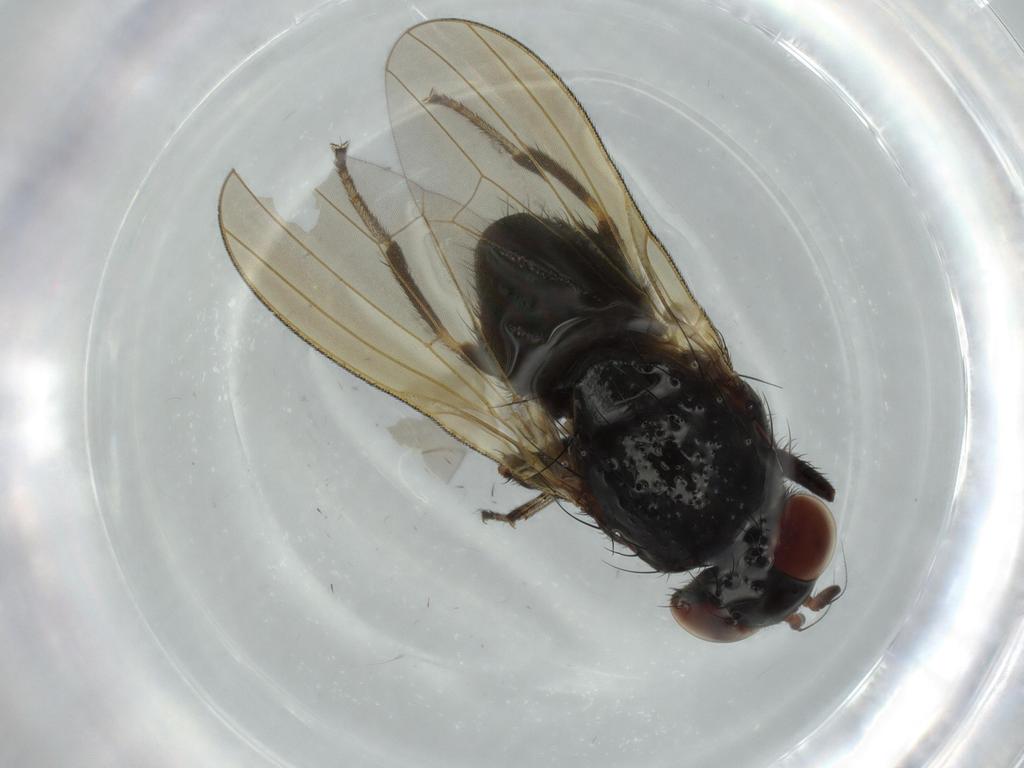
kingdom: Animalia
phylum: Arthropoda
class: Insecta
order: Diptera
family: Lauxaniidae
